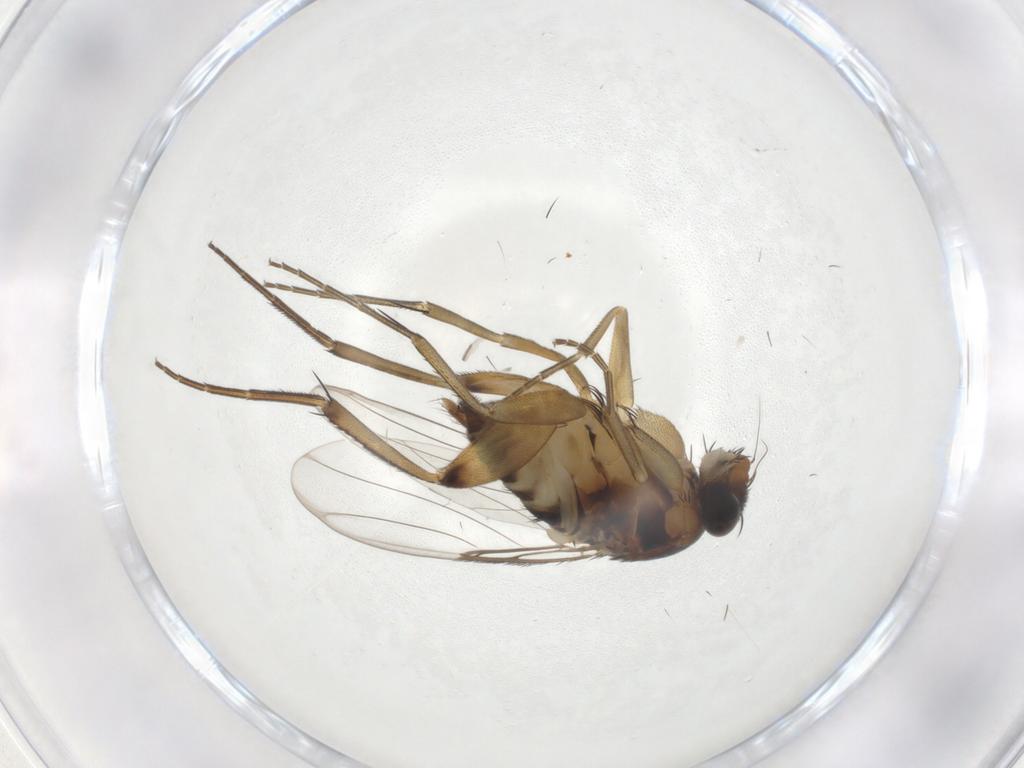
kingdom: Animalia
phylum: Arthropoda
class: Insecta
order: Diptera
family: Phoridae
